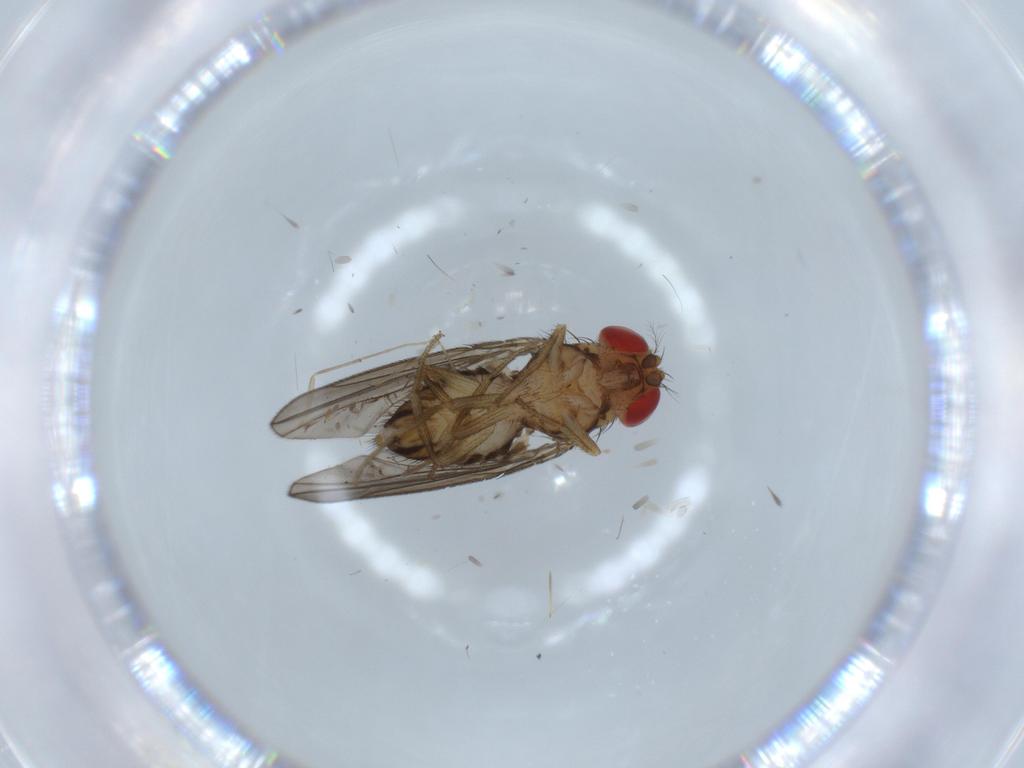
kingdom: Animalia
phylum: Arthropoda
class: Insecta
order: Diptera
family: Drosophilidae
